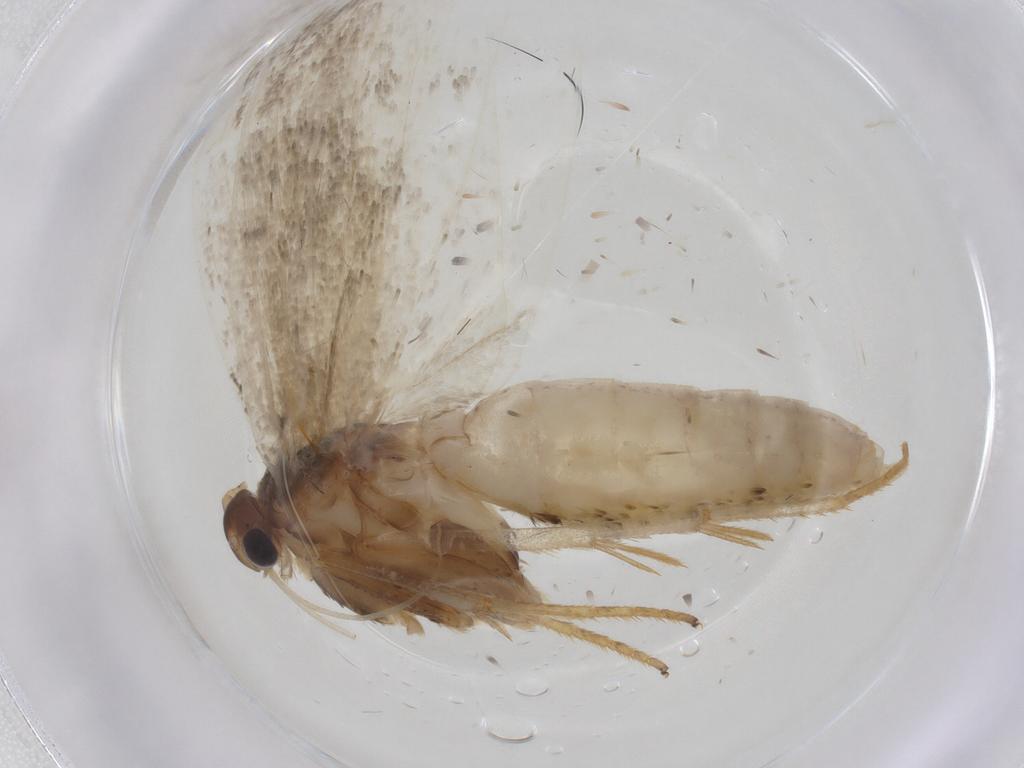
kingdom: Animalia
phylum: Arthropoda
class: Insecta
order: Lepidoptera
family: Depressariidae
